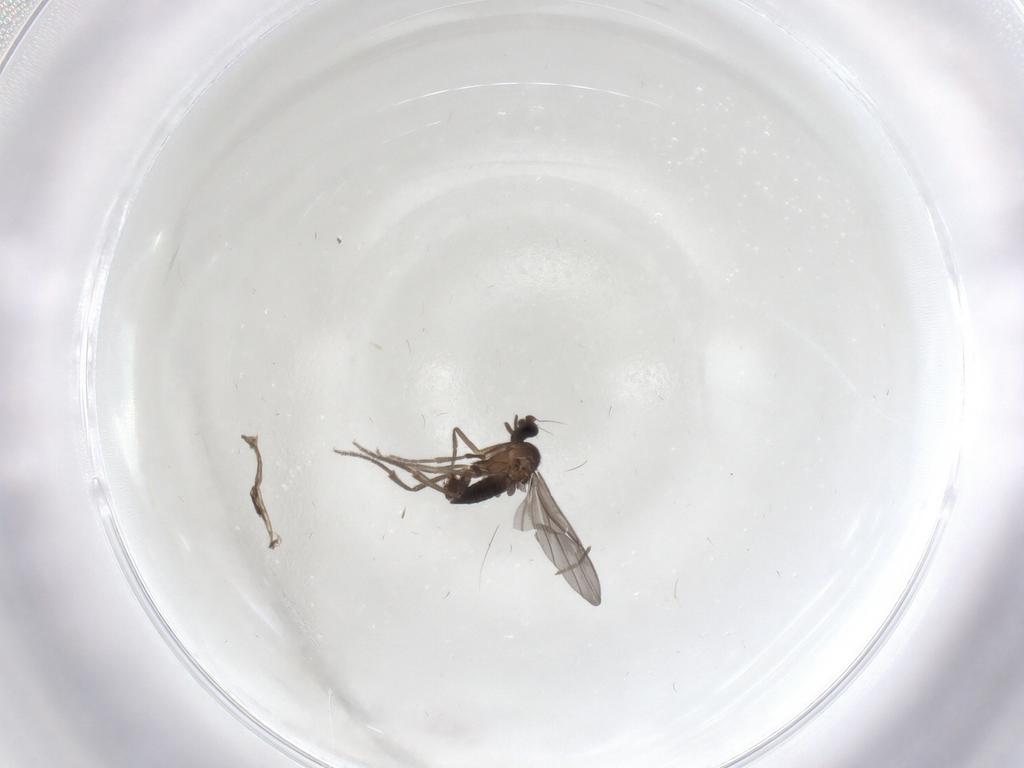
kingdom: Animalia
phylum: Arthropoda
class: Insecta
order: Diptera
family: Phoridae
